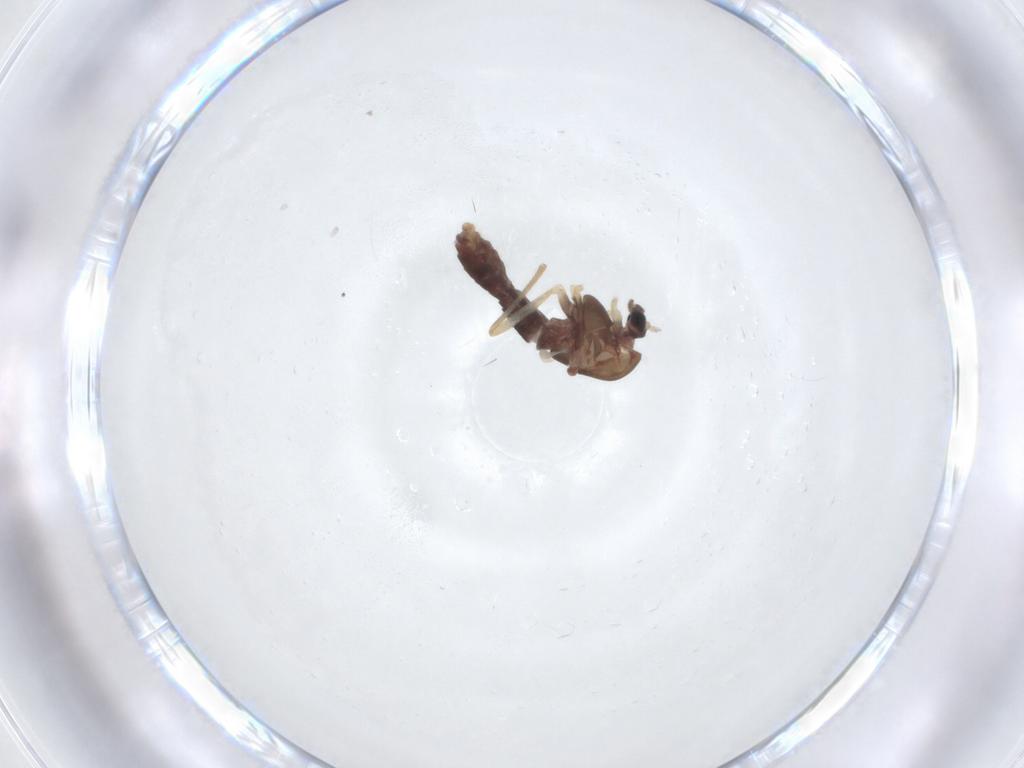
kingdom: Animalia
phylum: Arthropoda
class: Insecta
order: Diptera
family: Chironomidae
